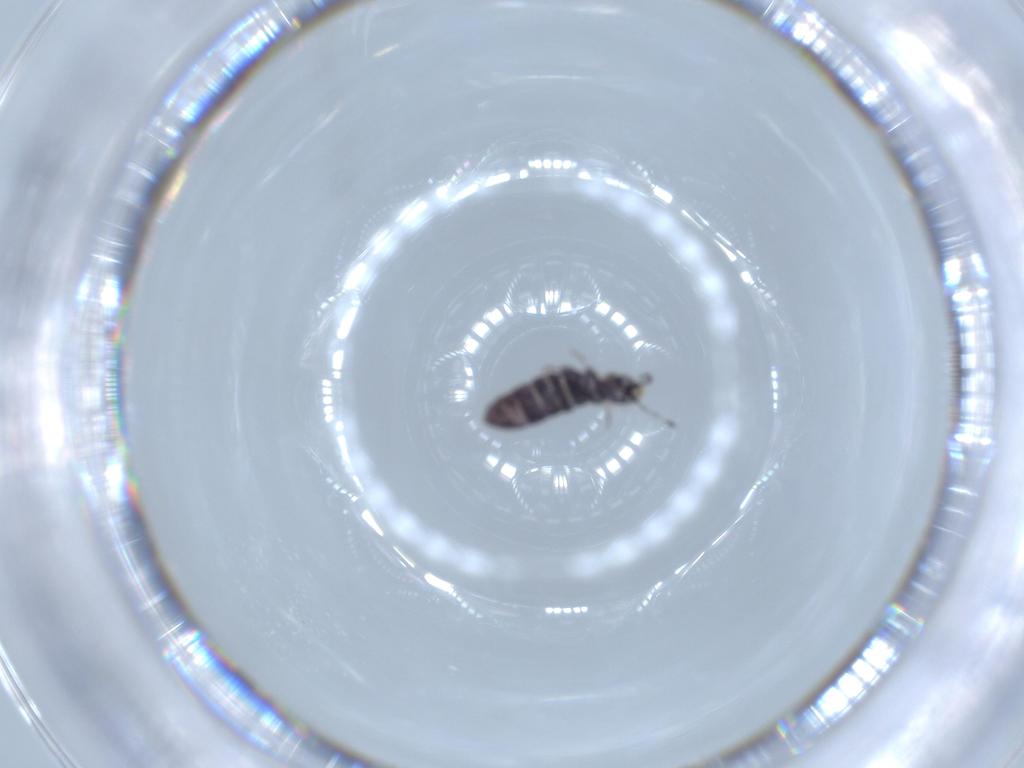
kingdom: Animalia
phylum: Arthropoda
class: Collembola
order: Entomobryomorpha
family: Isotomidae
